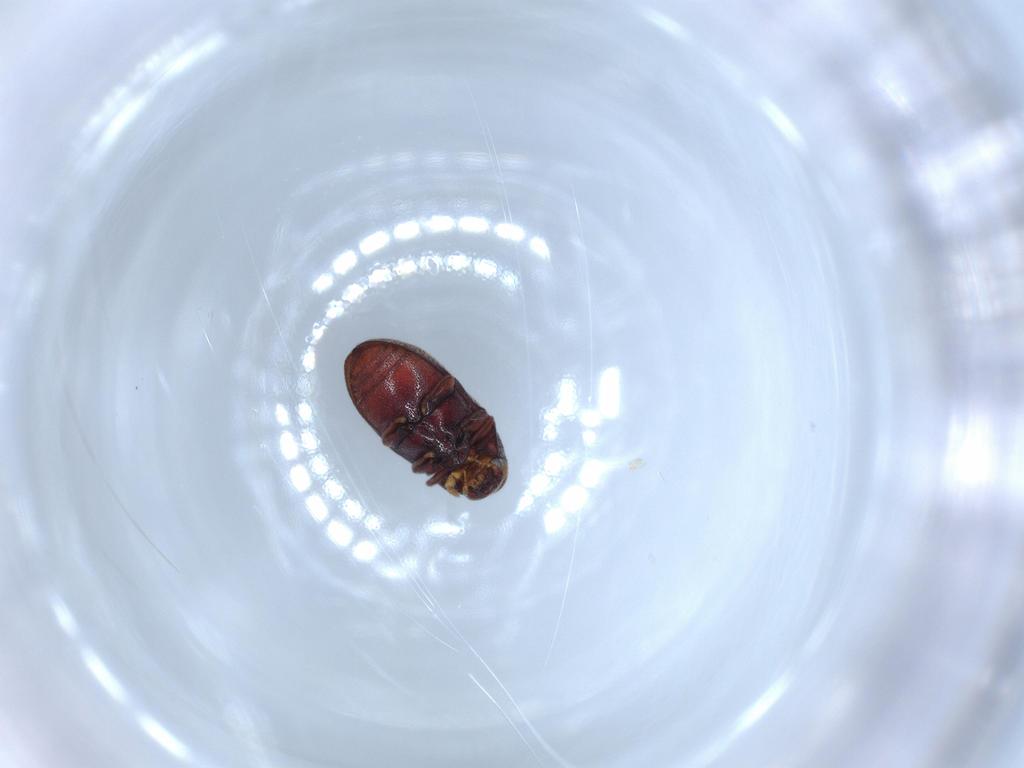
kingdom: Animalia
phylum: Arthropoda
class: Insecta
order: Coleoptera
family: Ptinidae
